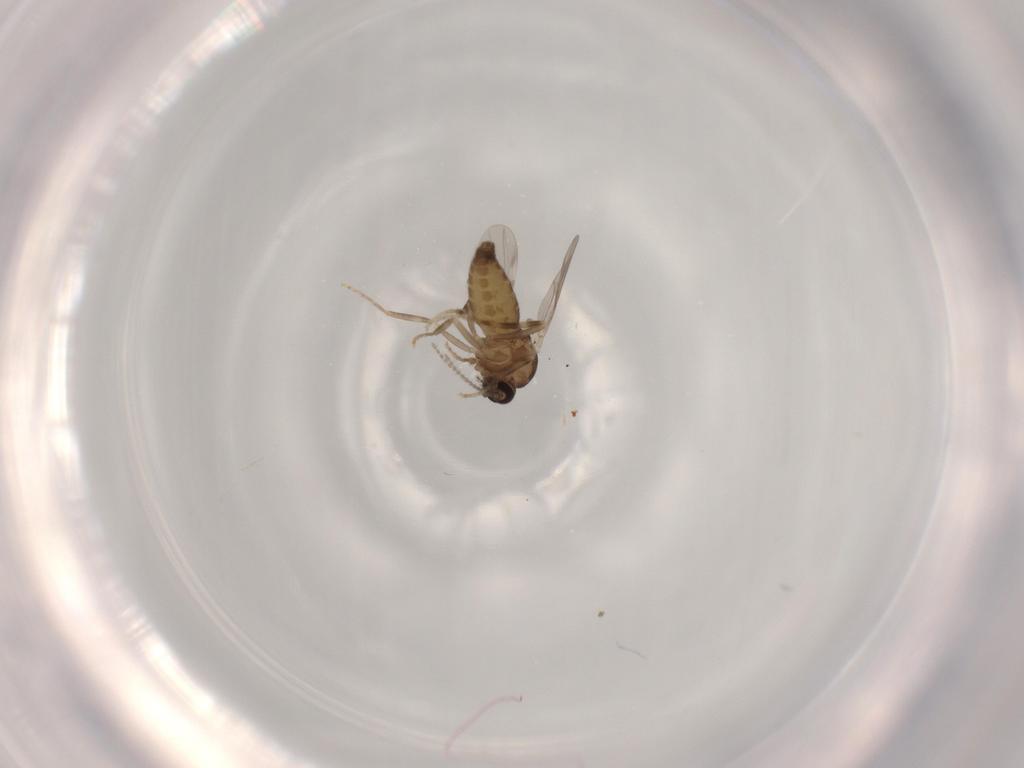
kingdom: Animalia
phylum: Arthropoda
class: Insecta
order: Diptera
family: Ceratopogonidae
